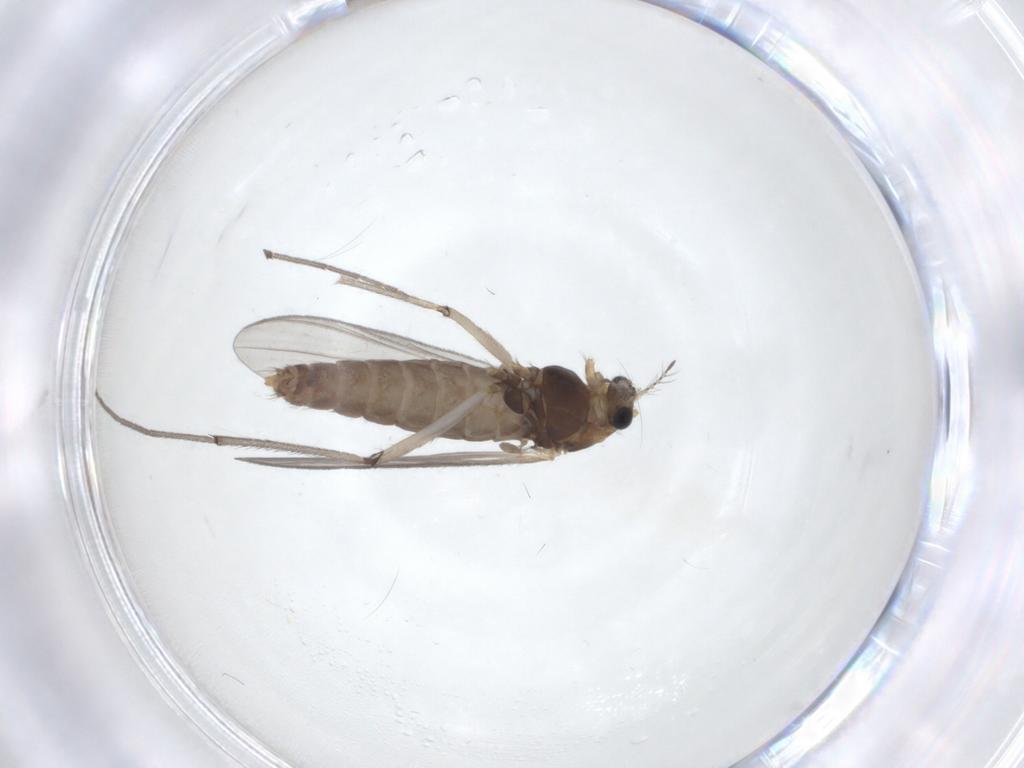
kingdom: Animalia
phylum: Arthropoda
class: Insecta
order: Diptera
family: Chironomidae
